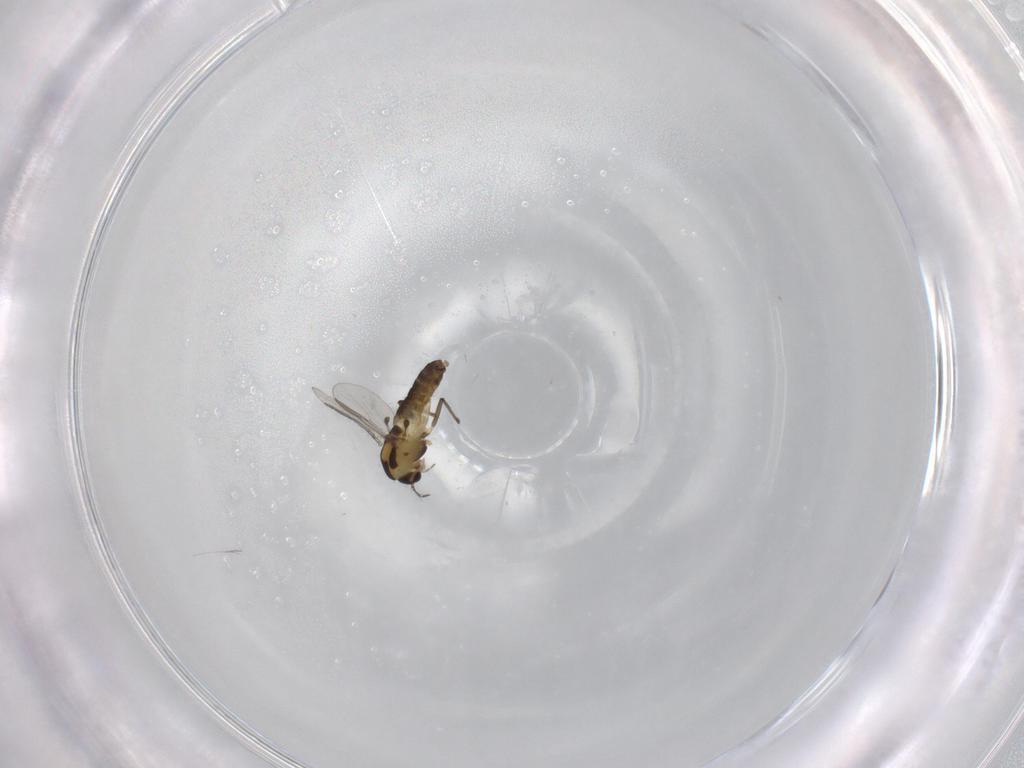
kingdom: Animalia
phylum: Arthropoda
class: Insecta
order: Diptera
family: Chironomidae
